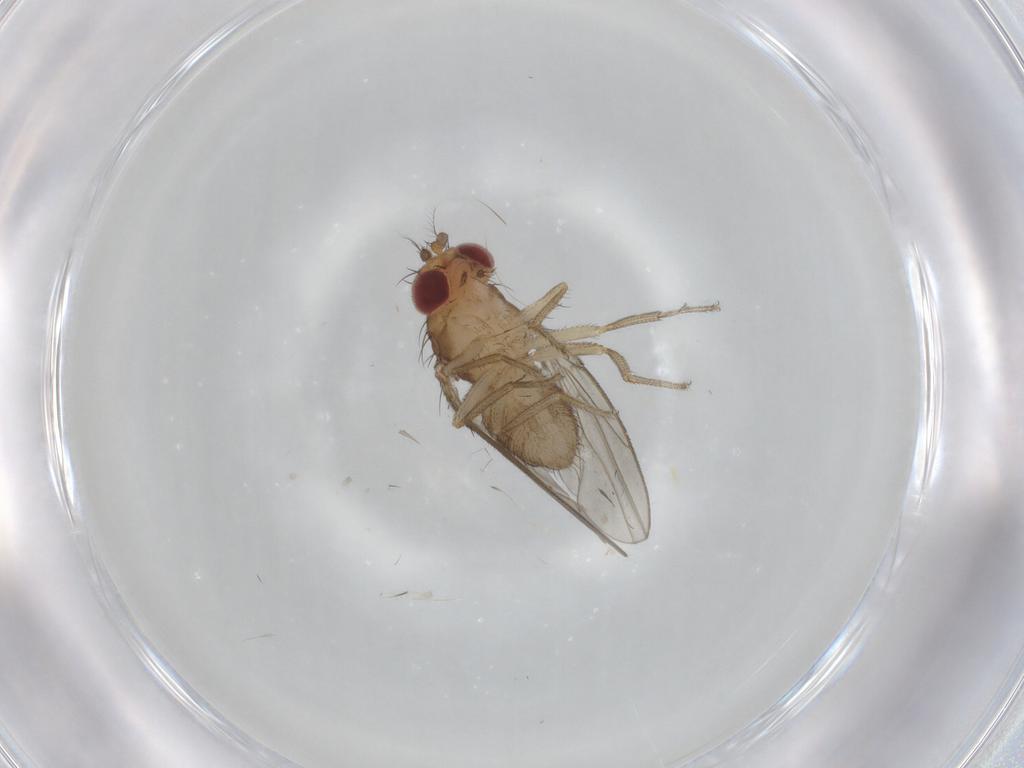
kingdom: Animalia
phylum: Arthropoda
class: Insecta
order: Diptera
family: Drosophilidae
